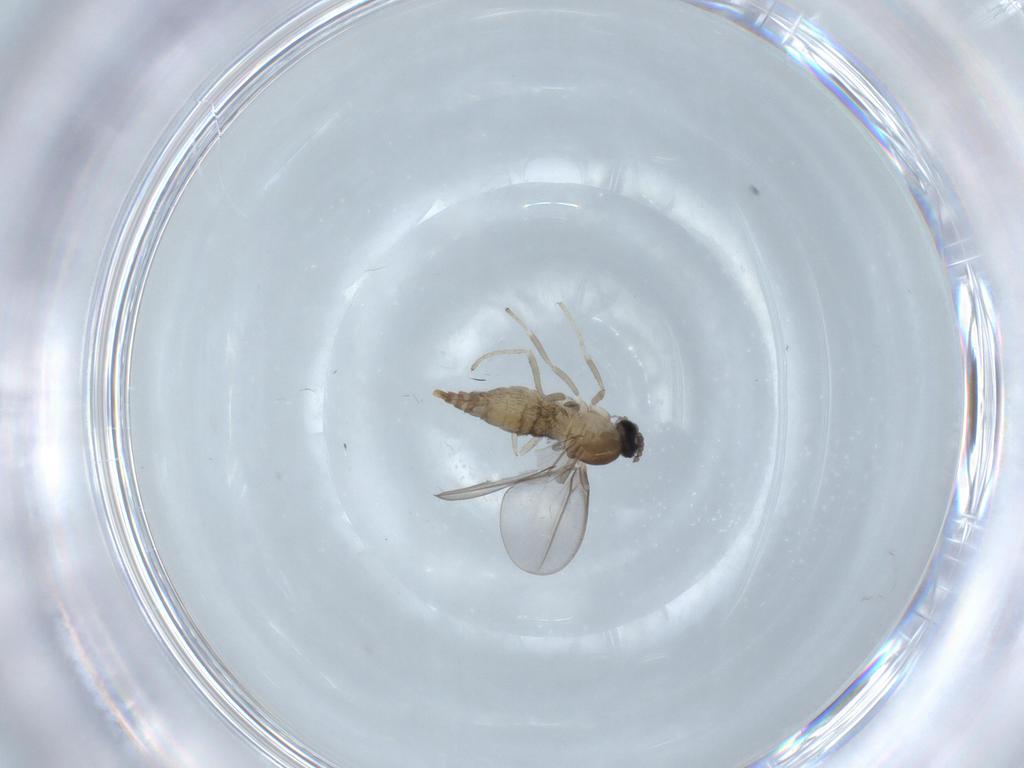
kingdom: Animalia
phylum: Arthropoda
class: Insecta
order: Diptera
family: Cecidomyiidae
